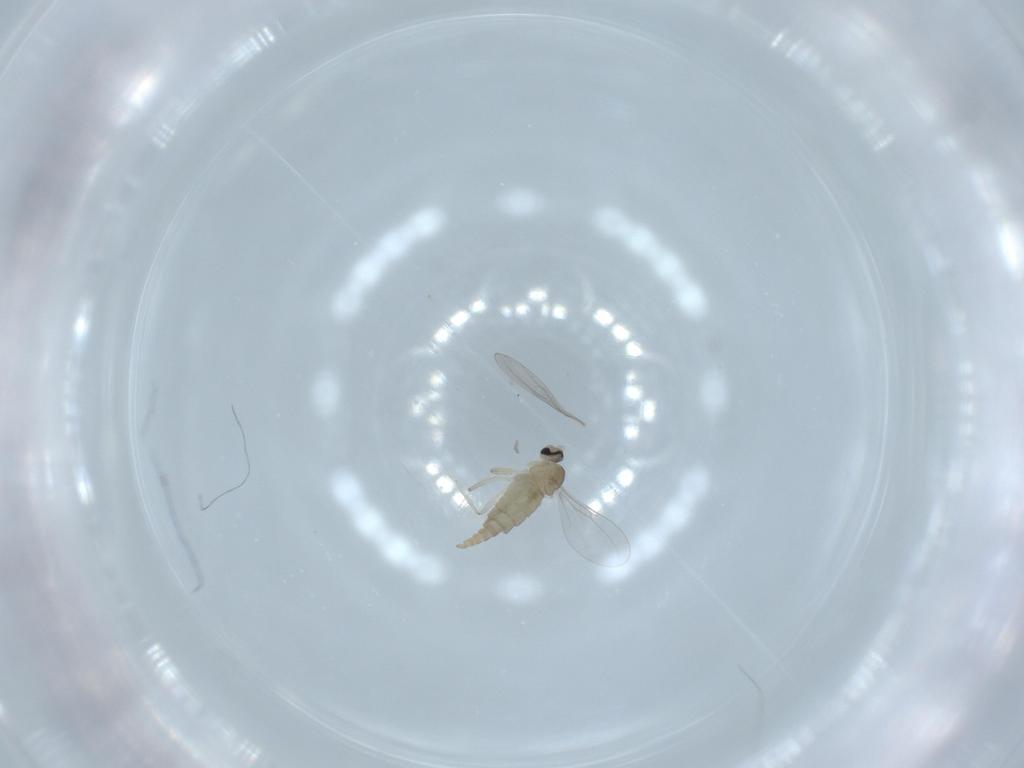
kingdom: Animalia
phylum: Arthropoda
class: Insecta
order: Diptera
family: Cecidomyiidae
